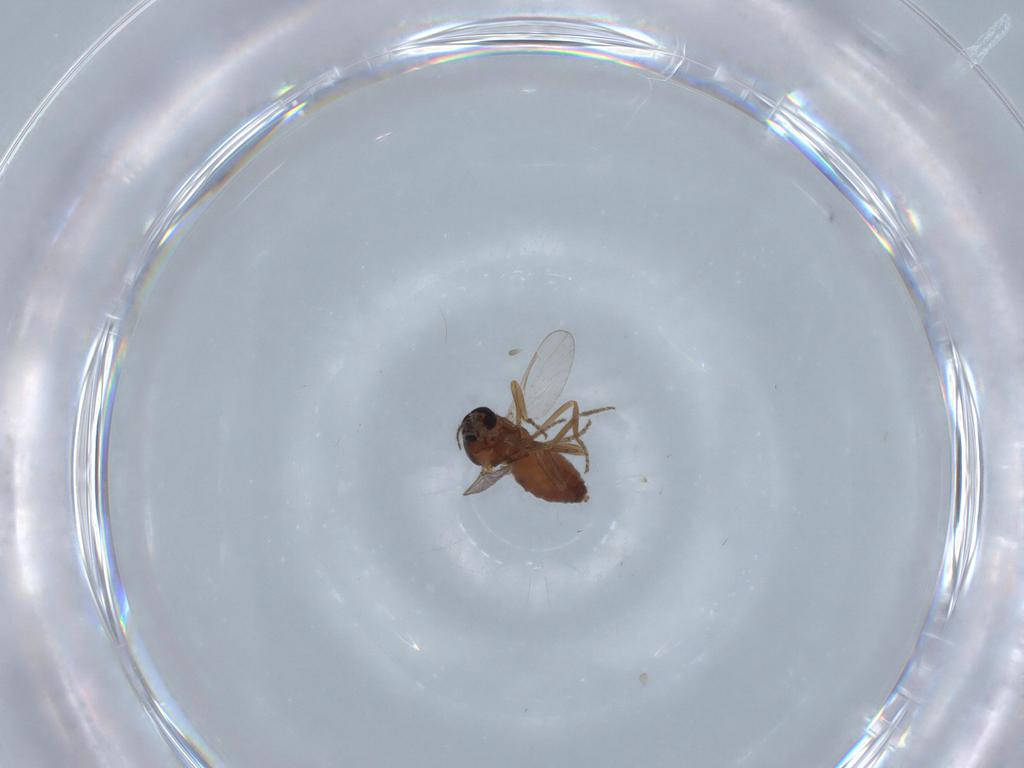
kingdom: Animalia
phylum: Arthropoda
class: Insecta
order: Diptera
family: Ceratopogonidae
